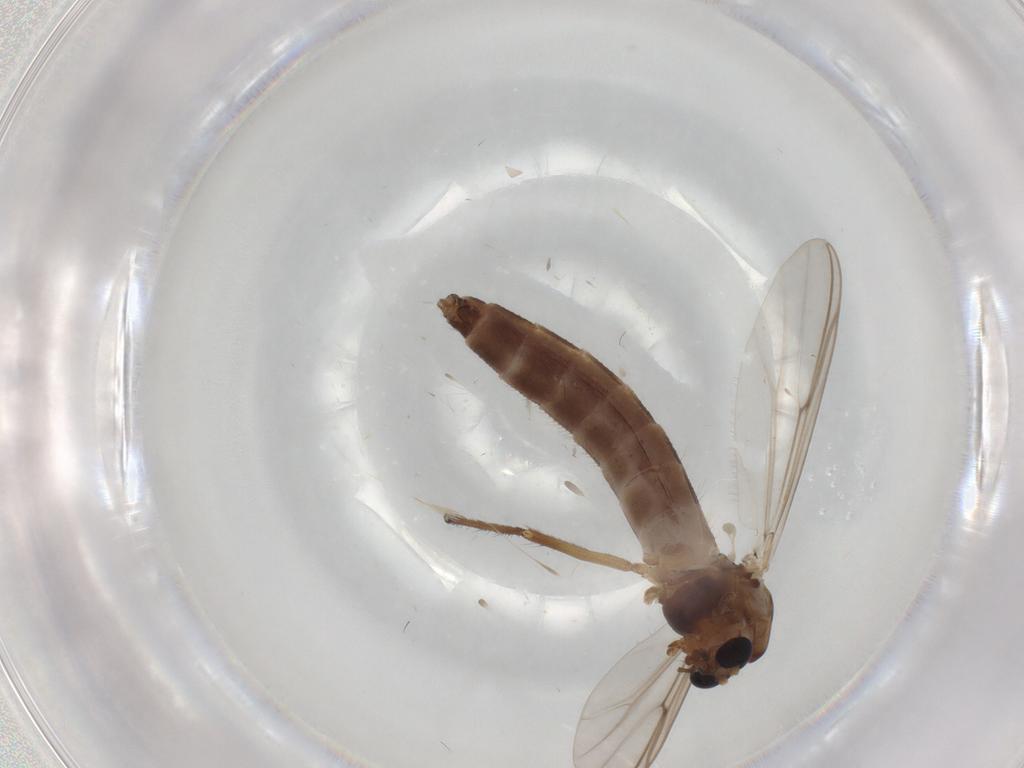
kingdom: Animalia
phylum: Arthropoda
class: Insecta
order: Diptera
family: Chironomidae
